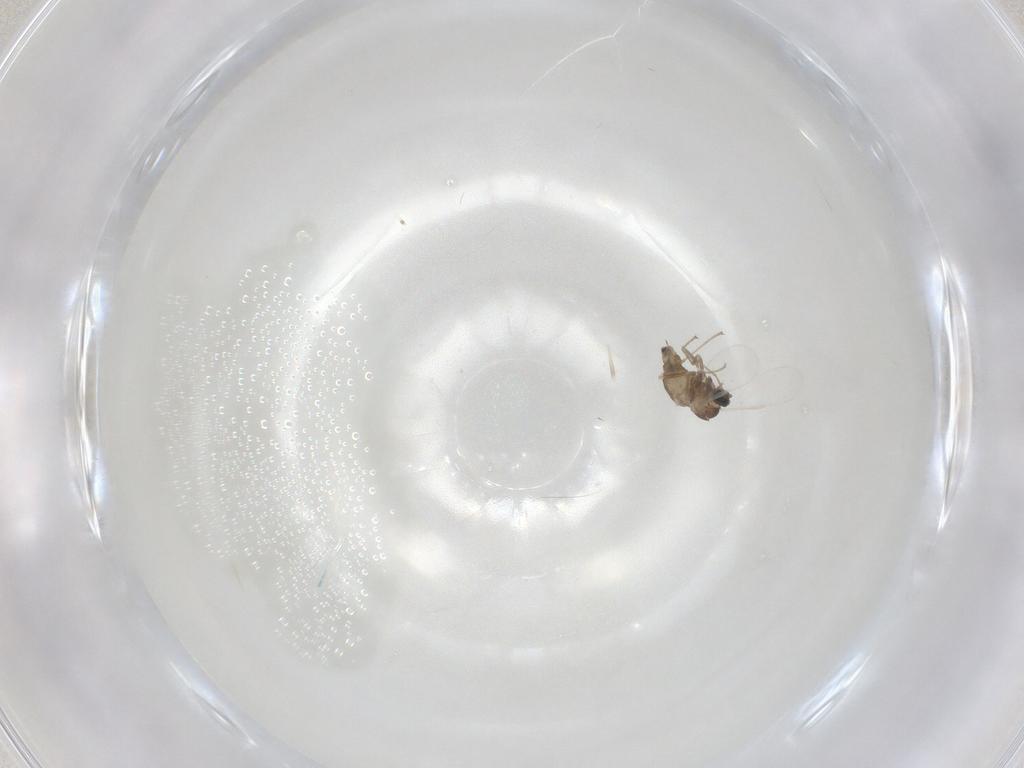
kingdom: Animalia
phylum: Arthropoda
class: Insecta
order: Diptera
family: Cecidomyiidae
